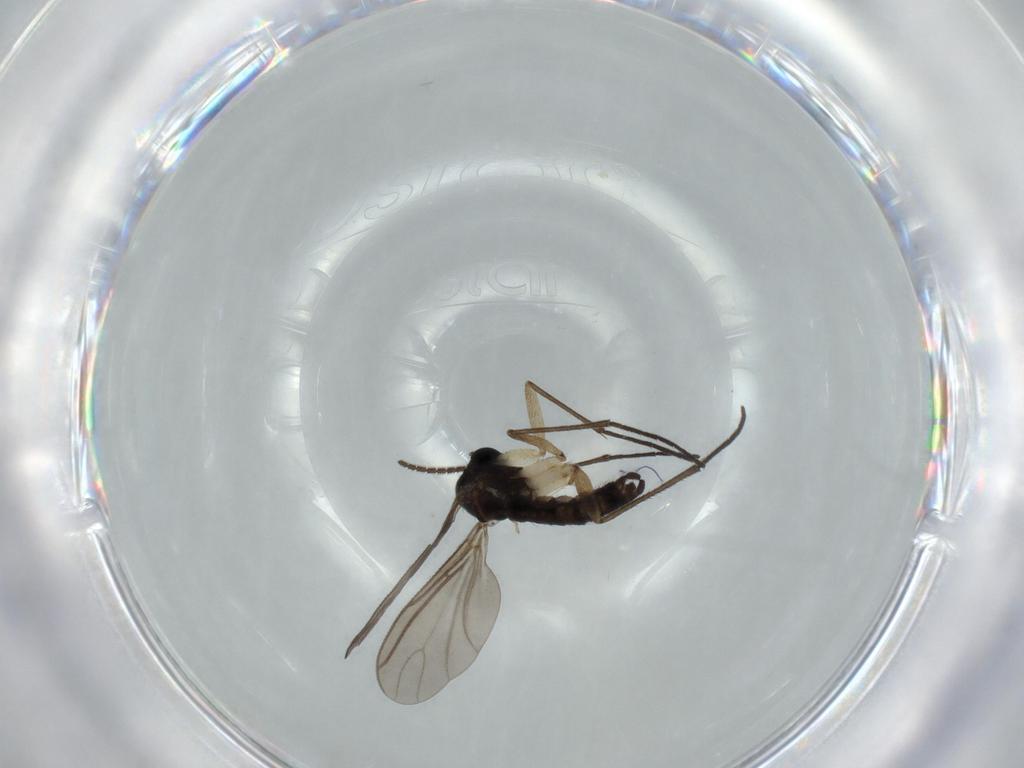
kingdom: Animalia
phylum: Arthropoda
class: Insecta
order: Diptera
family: Sciaridae
